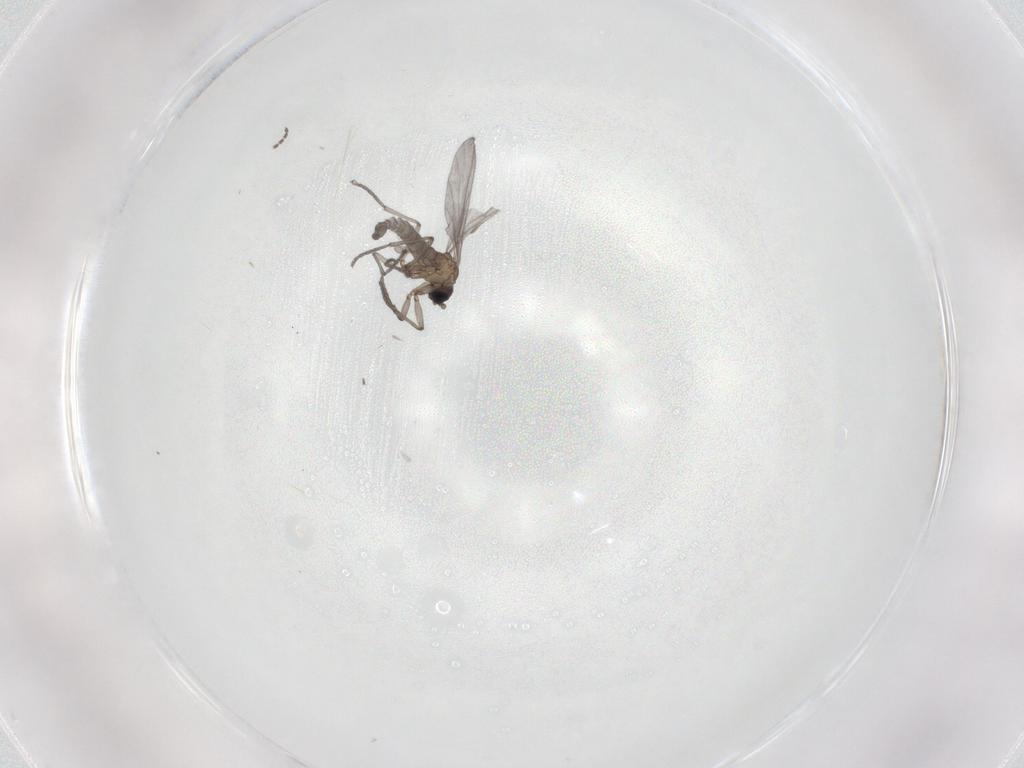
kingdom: Animalia
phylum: Arthropoda
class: Insecta
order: Diptera
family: Sciaridae
